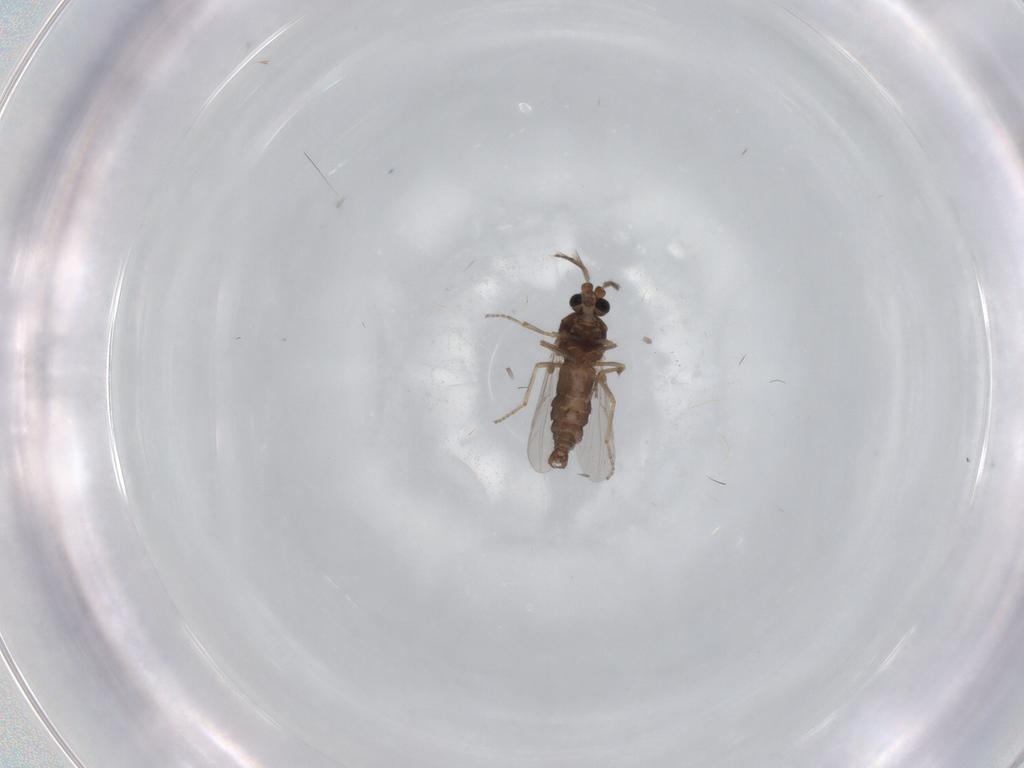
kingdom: Animalia
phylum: Arthropoda
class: Insecta
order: Diptera
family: Ceratopogonidae
